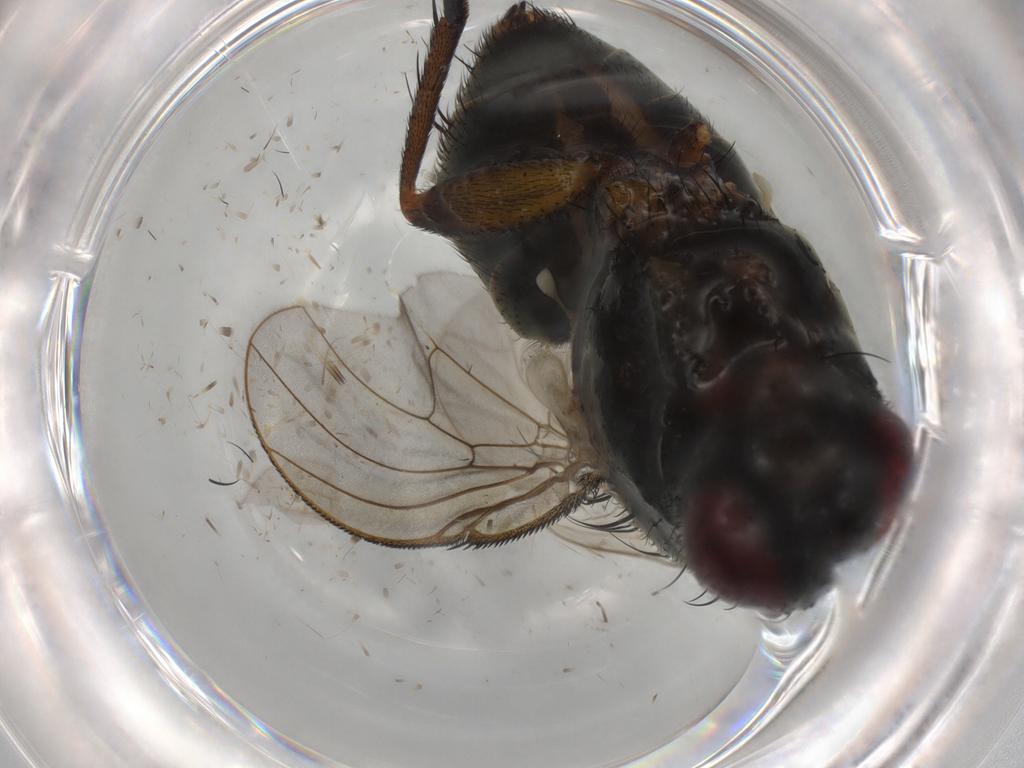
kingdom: Animalia
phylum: Arthropoda
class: Insecta
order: Diptera
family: Muscidae
